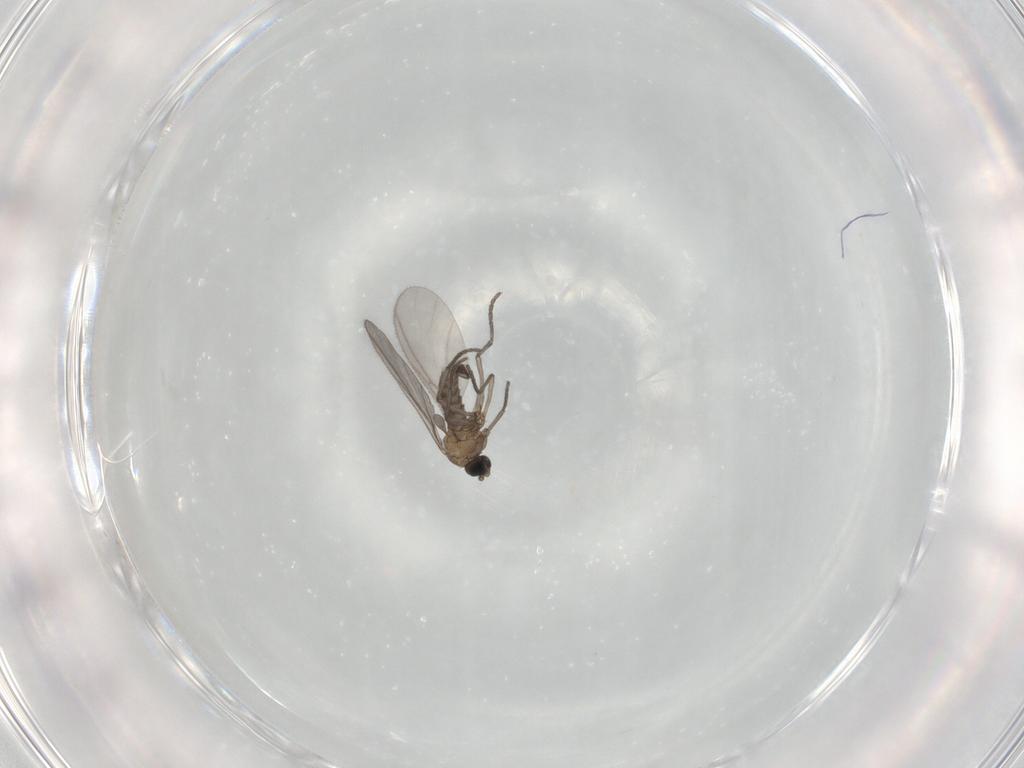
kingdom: Animalia
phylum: Arthropoda
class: Insecta
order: Diptera
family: Sciaridae
